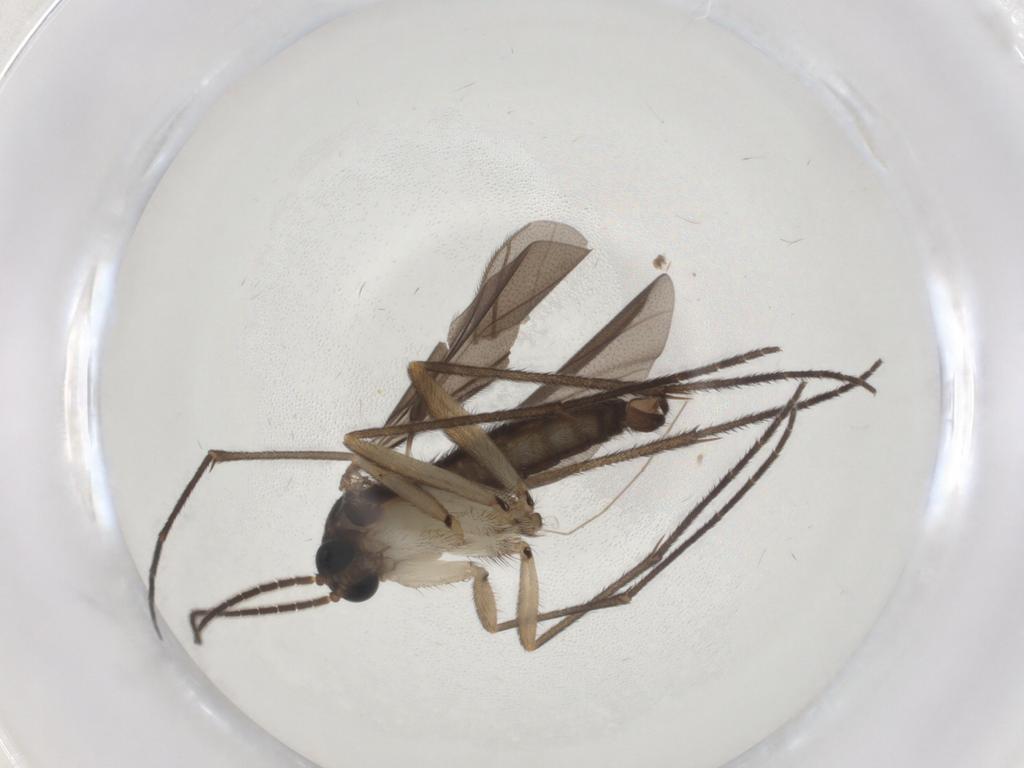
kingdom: Animalia
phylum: Arthropoda
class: Insecta
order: Diptera
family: Sciaridae
